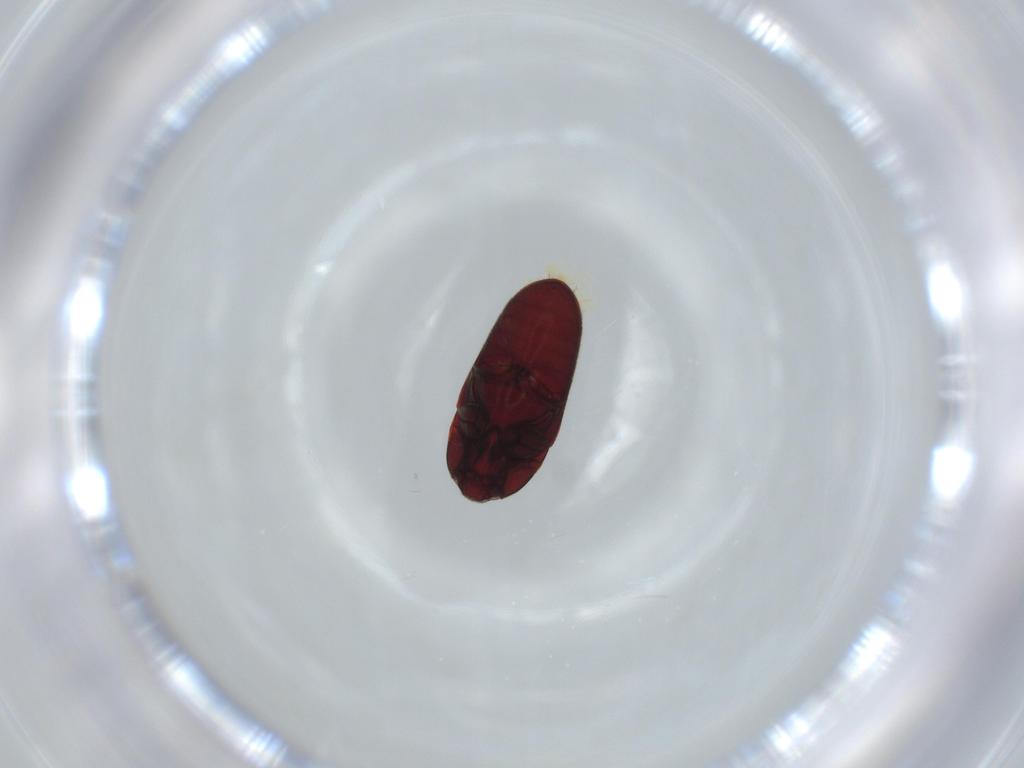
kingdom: Animalia
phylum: Arthropoda
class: Insecta
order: Coleoptera
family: Throscidae
